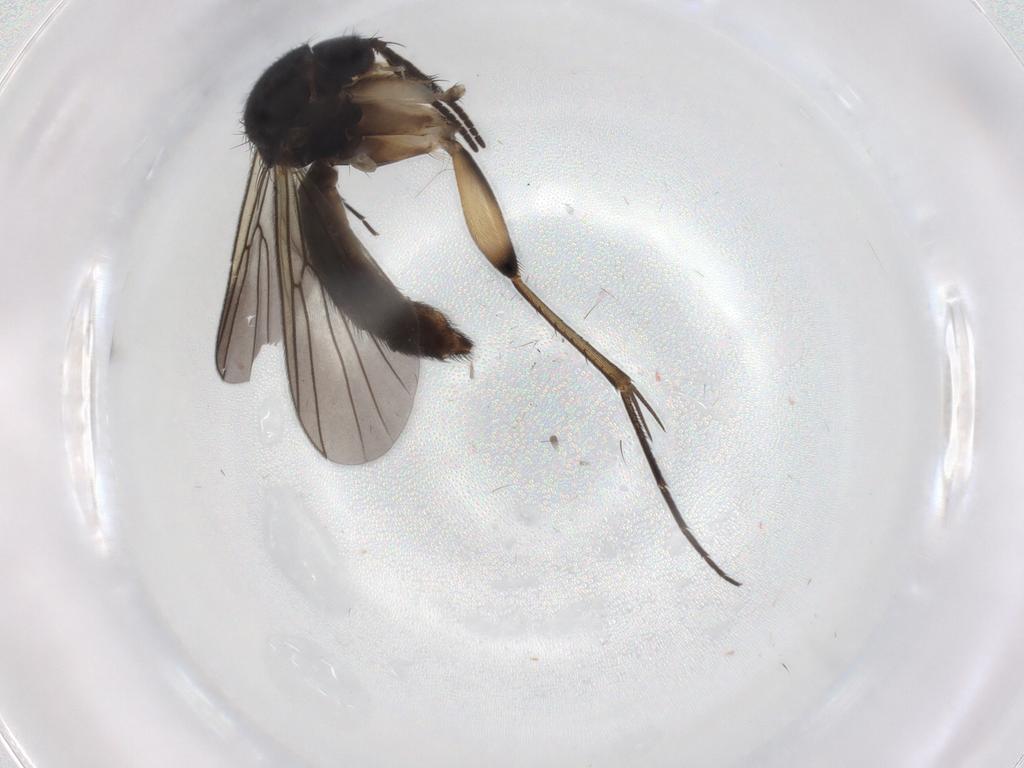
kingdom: Animalia
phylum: Arthropoda
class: Insecta
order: Diptera
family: Mycetophilidae
